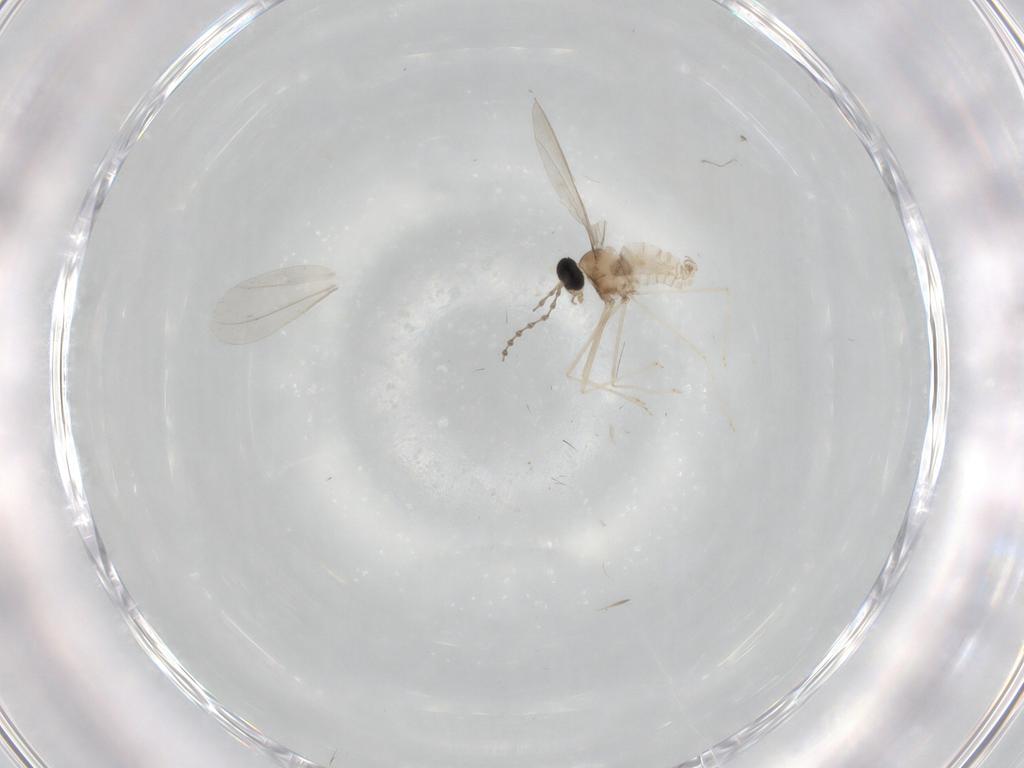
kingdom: Animalia
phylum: Arthropoda
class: Insecta
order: Diptera
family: Cecidomyiidae
